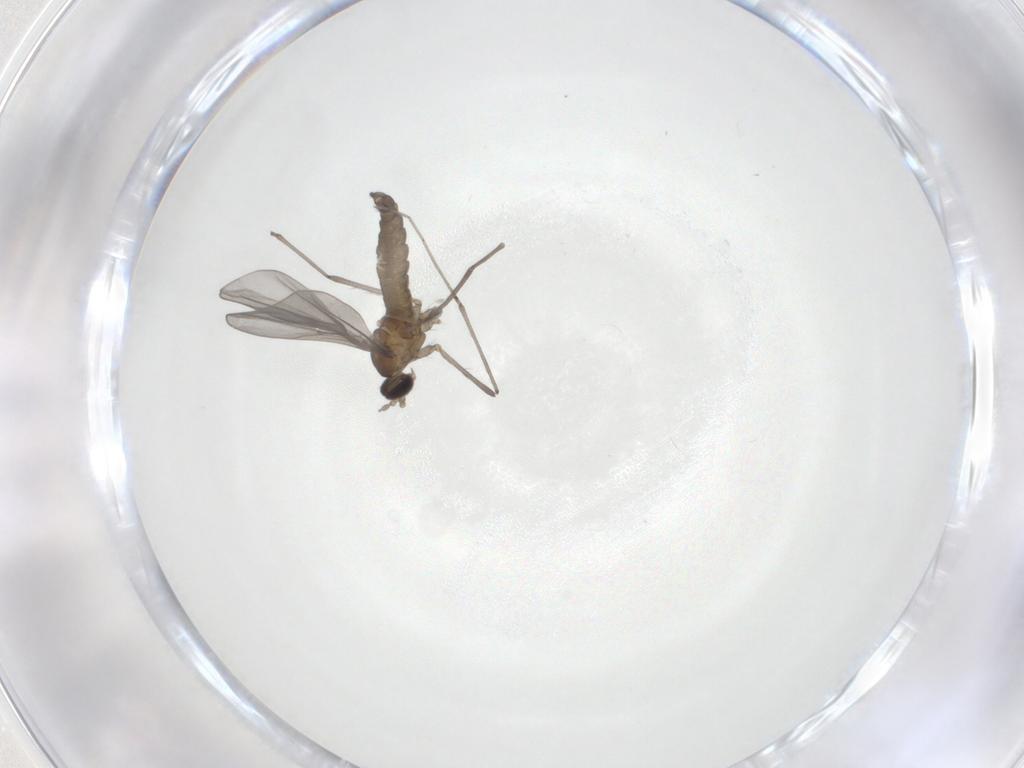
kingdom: Animalia
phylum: Arthropoda
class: Insecta
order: Diptera
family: Cecidomyiidae
